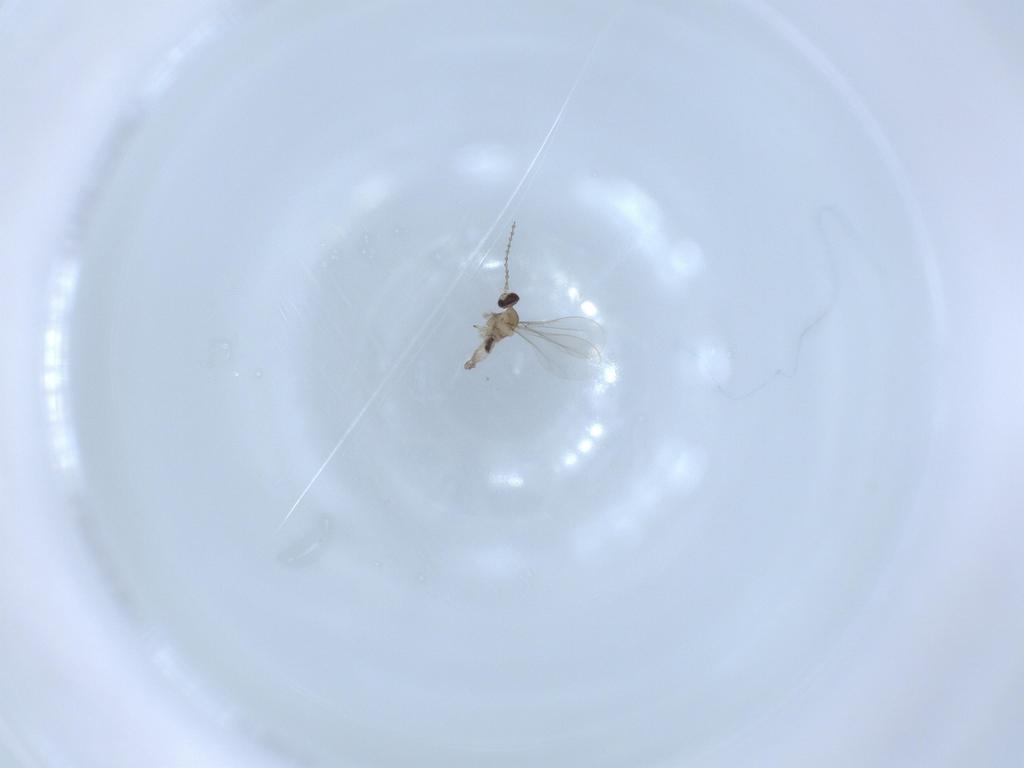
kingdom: Animalia
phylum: Arthropoda
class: Insecta
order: Diptera
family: Cecidomyiidae
